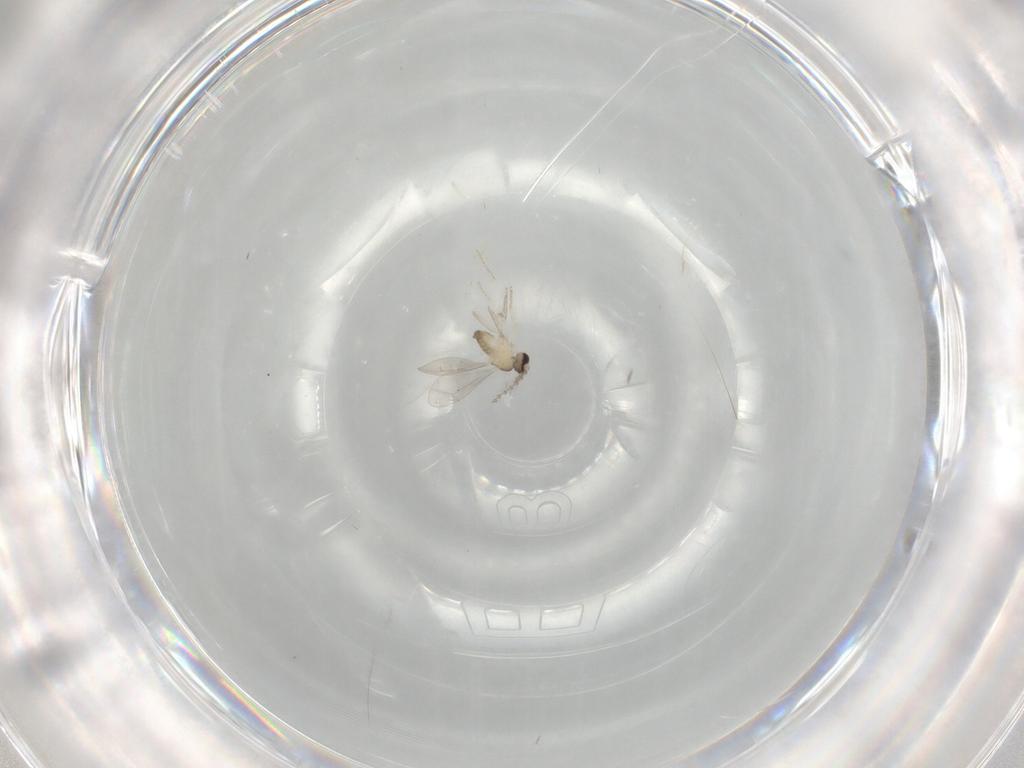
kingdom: Animalia
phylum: Arthropoda
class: Insecta
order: Diptera
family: Cecidomyiidae
